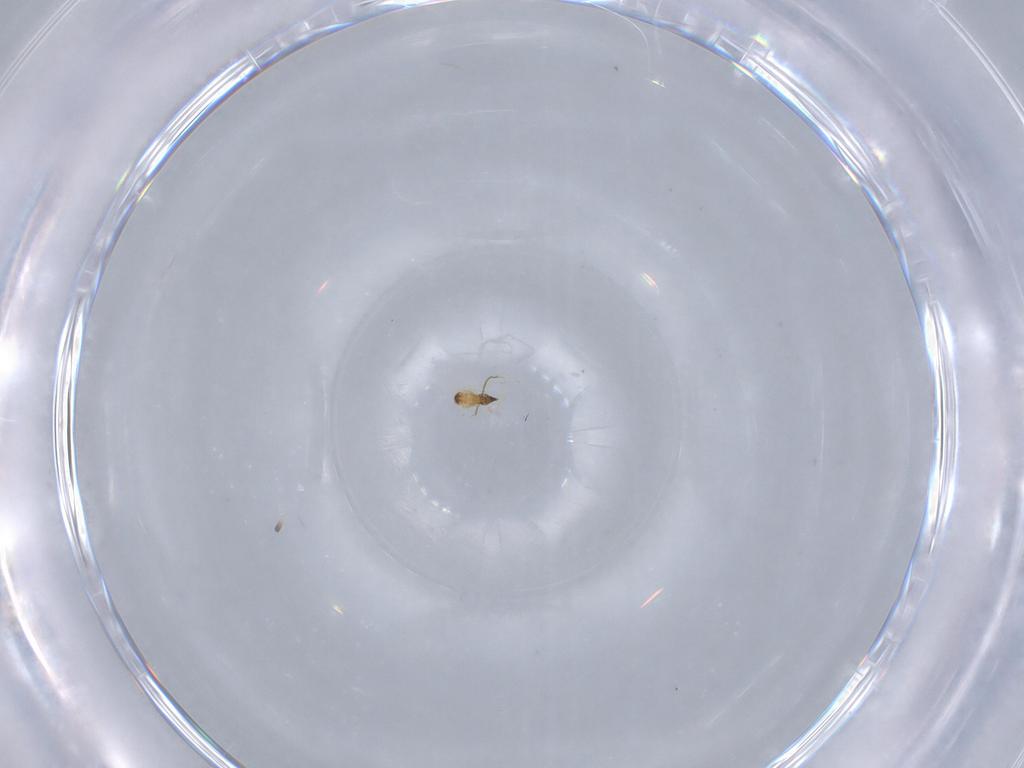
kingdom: Animalia
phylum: Arthropoda
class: Insecta
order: Hymenoptera
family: Mymaridae
